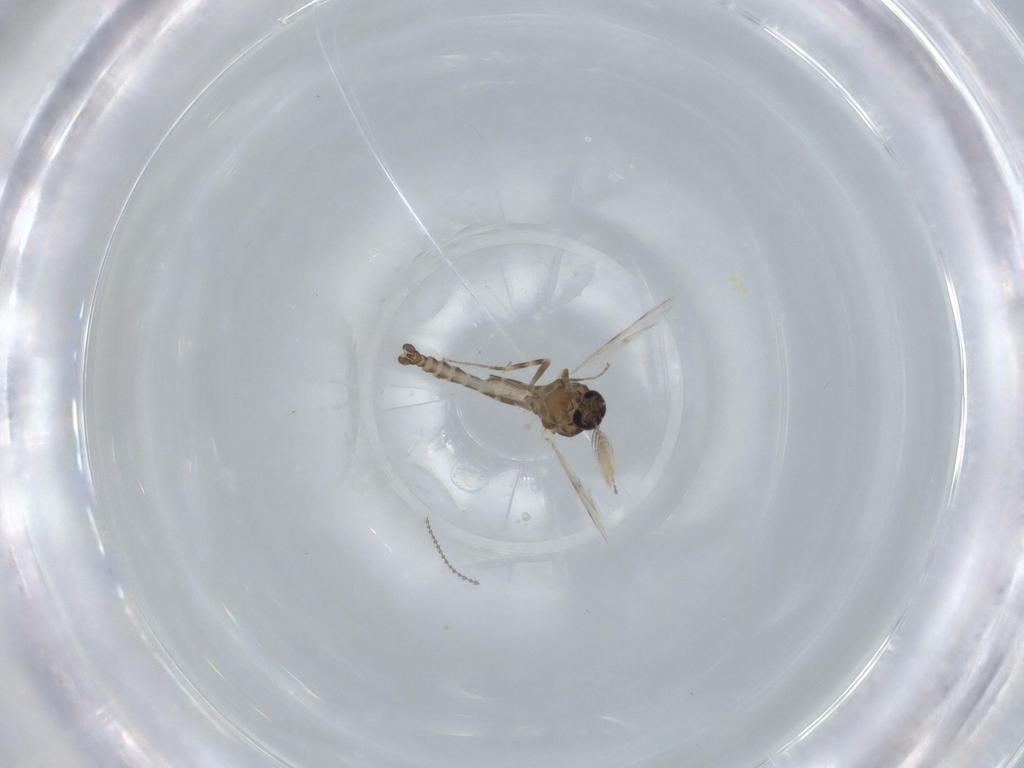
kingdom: Animalia
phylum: Arthropoda
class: Insecta
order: Diptera
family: Ceratopogonidae
